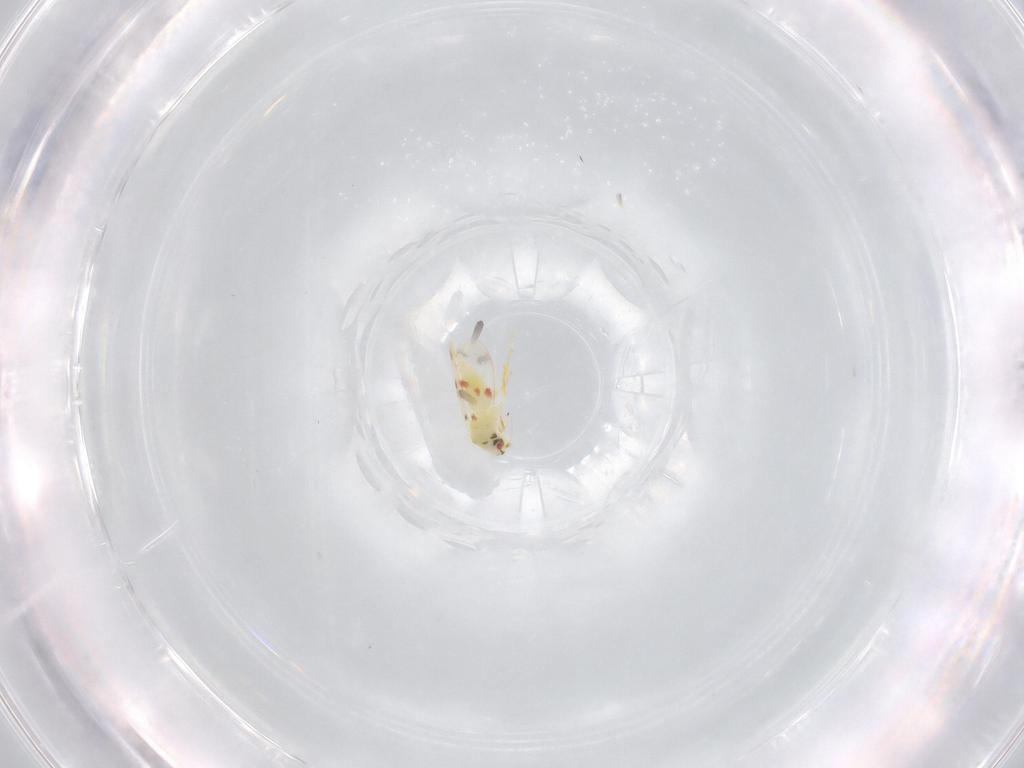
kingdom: Animalia
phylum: Arthropoda
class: Insecta
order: Hemiptera
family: Aleyrodidae
